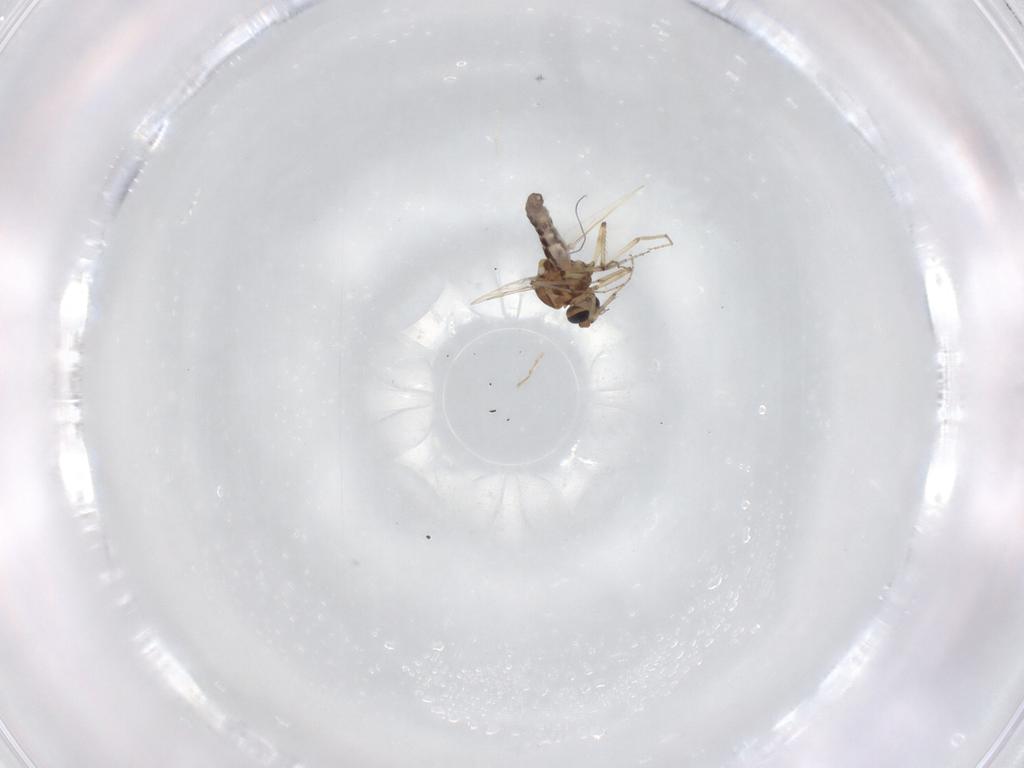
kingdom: Animalia
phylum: Arthropoda
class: Insecta
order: Diptera
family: Ceratopogonidae
